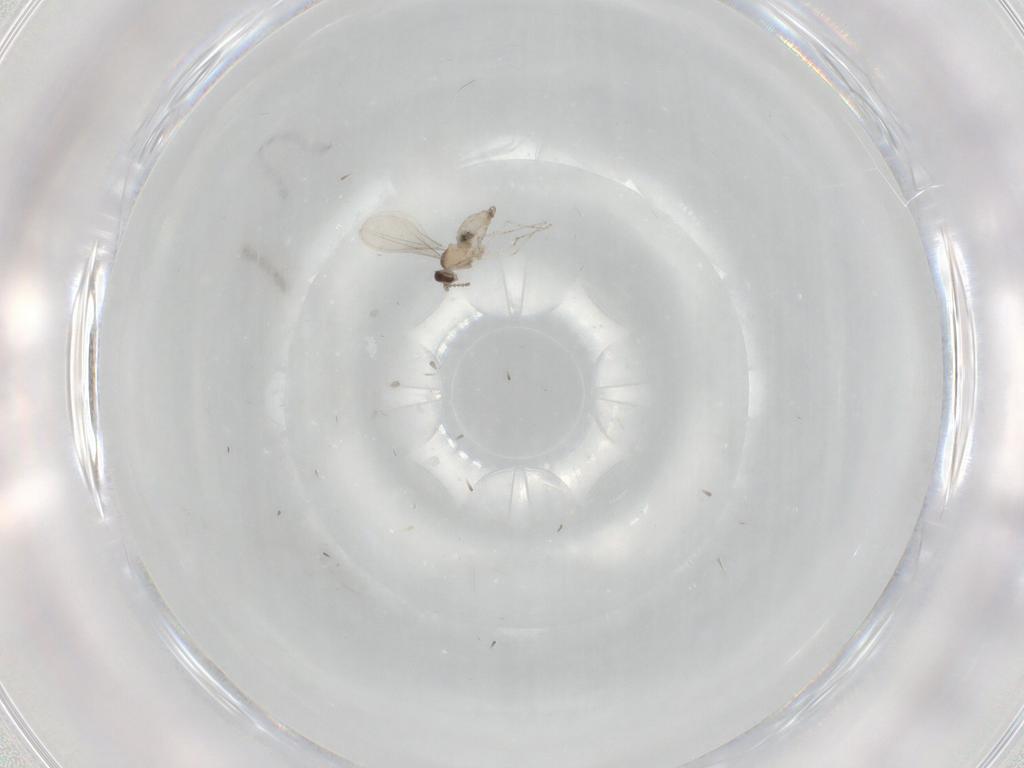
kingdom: Animalia
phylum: Arthropoda
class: Insecta
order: Diptera
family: Cecidomyiidae
